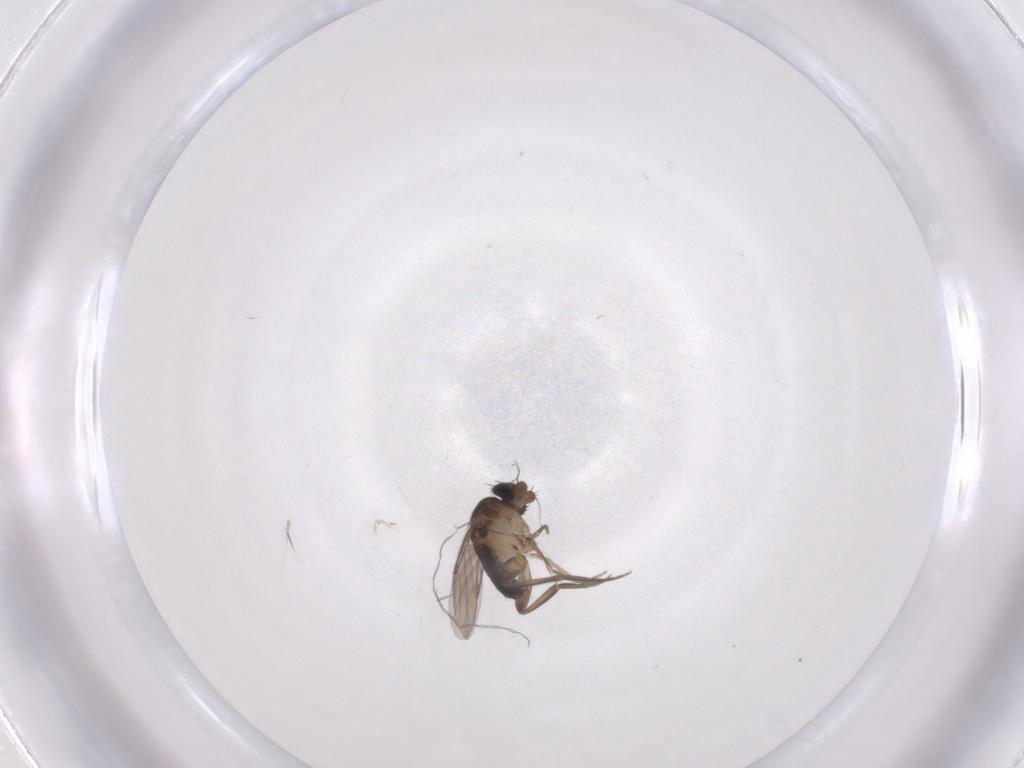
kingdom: Animalia
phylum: Arthropoda
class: Insecta
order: Diptera
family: Phoridae
